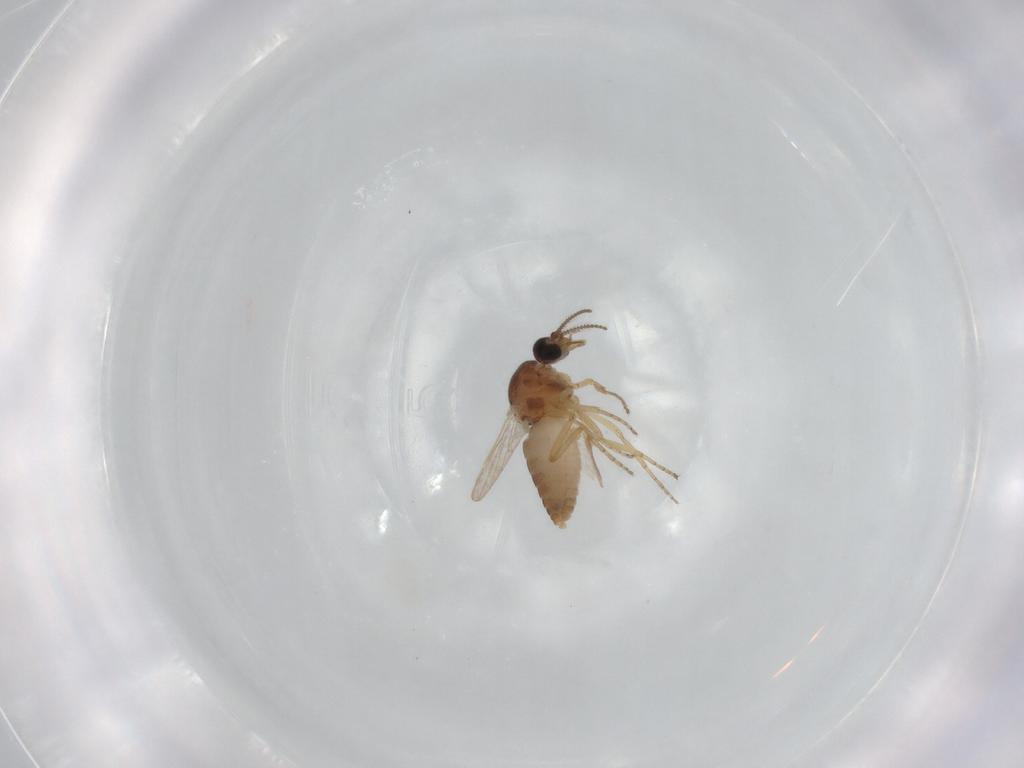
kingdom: Animalia
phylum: Arthropoda
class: Insecta
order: Diptera
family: Ceratopogonidae
